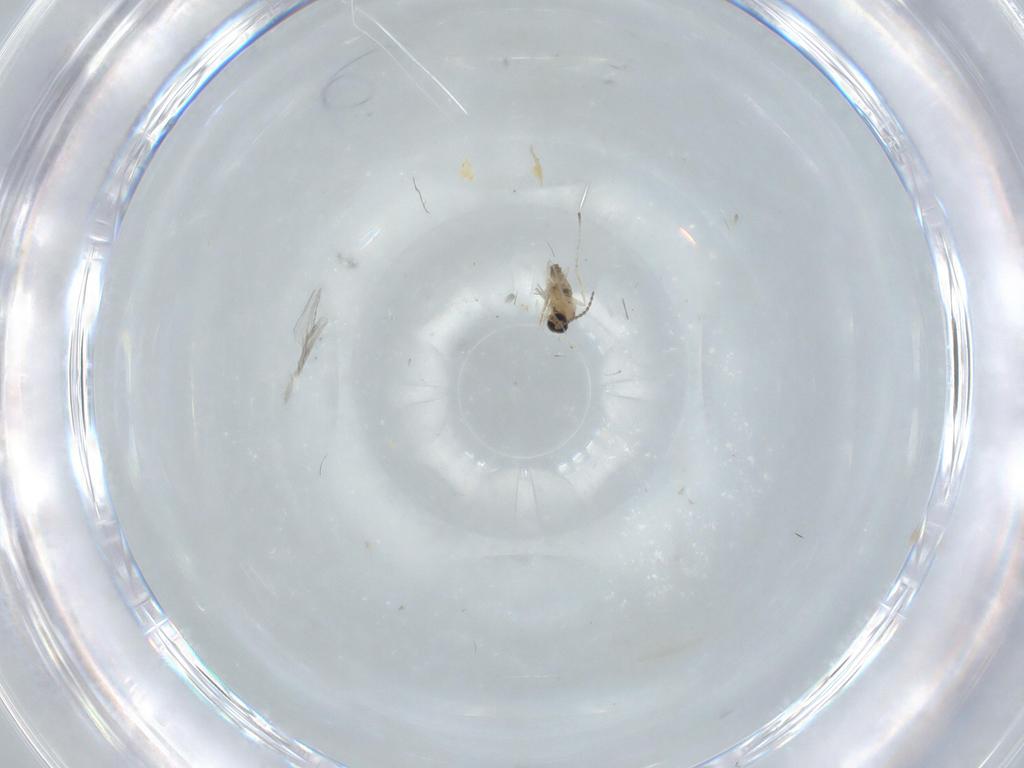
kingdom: Animalia
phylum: Arthropoda
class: Insecta
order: Diptera
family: Cecidomyiidae
